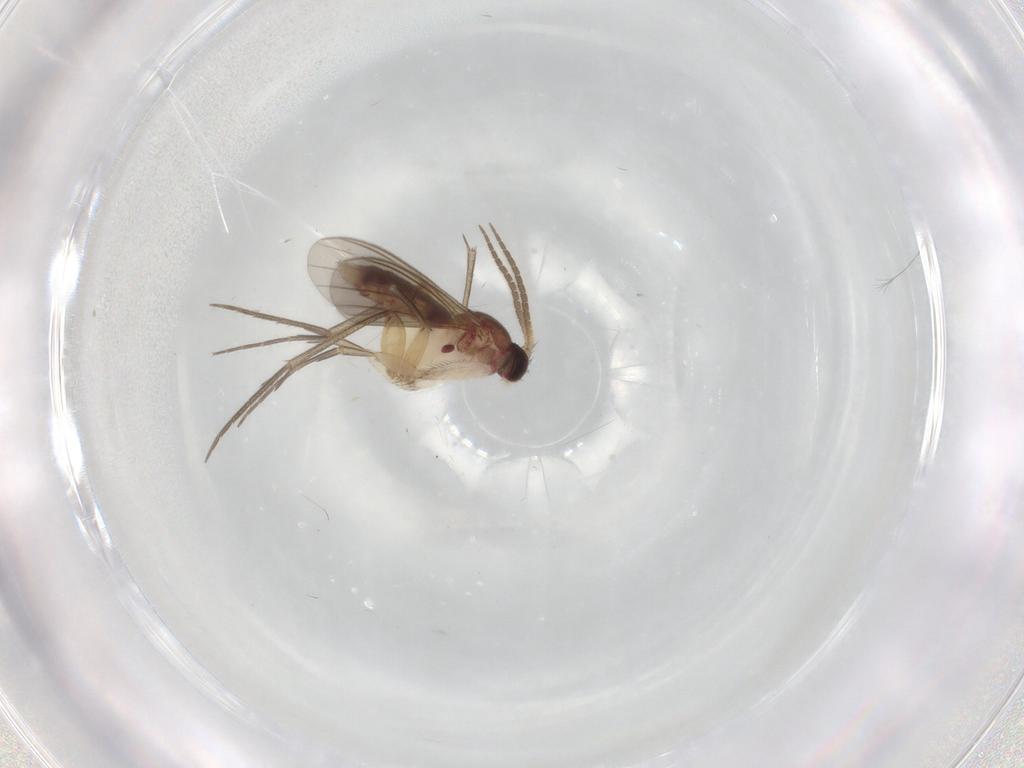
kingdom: Animalia
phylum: Arthropoda
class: Insecta
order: Diptera
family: Mycetophilidae
